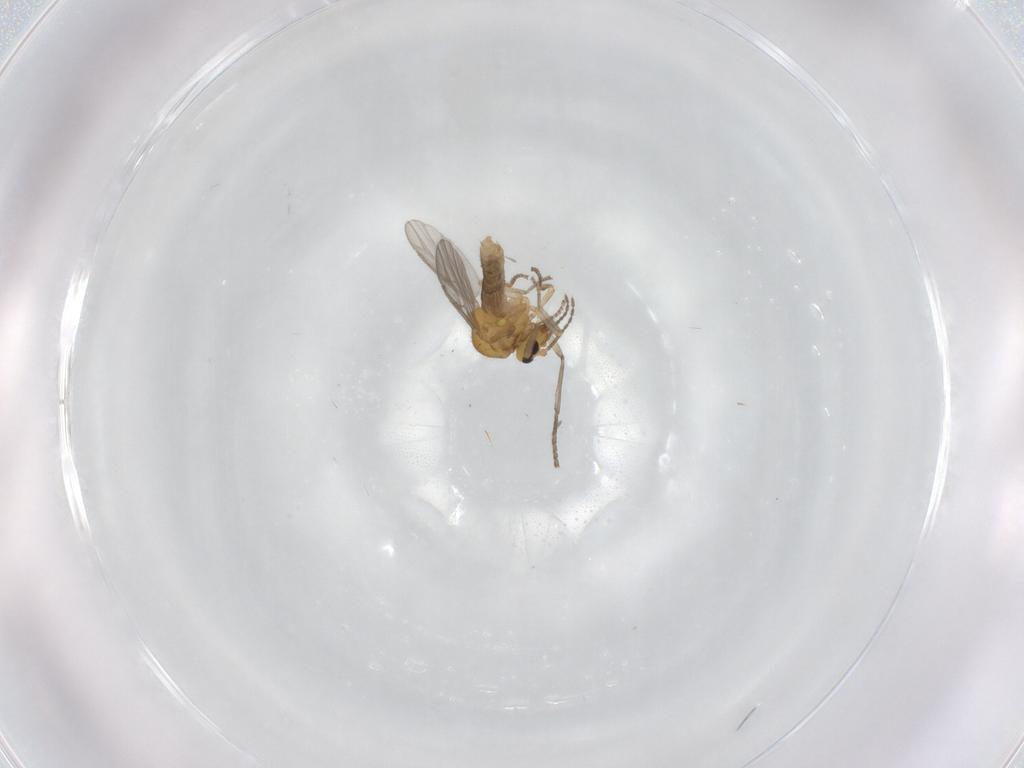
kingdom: Animalia
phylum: Arthropoda
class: Insecta
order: Diptera
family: Ceratopogonidae
